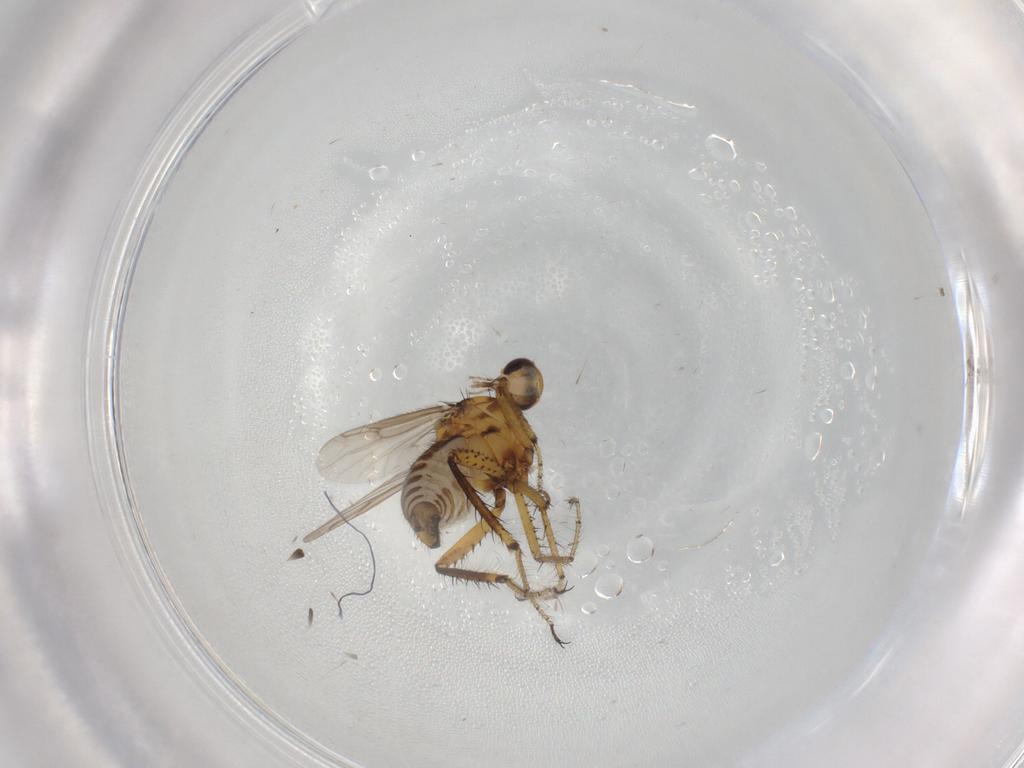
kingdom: Animalia
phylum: Arthropoda
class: Insecta
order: Diptera
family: Ceratopogonidae
